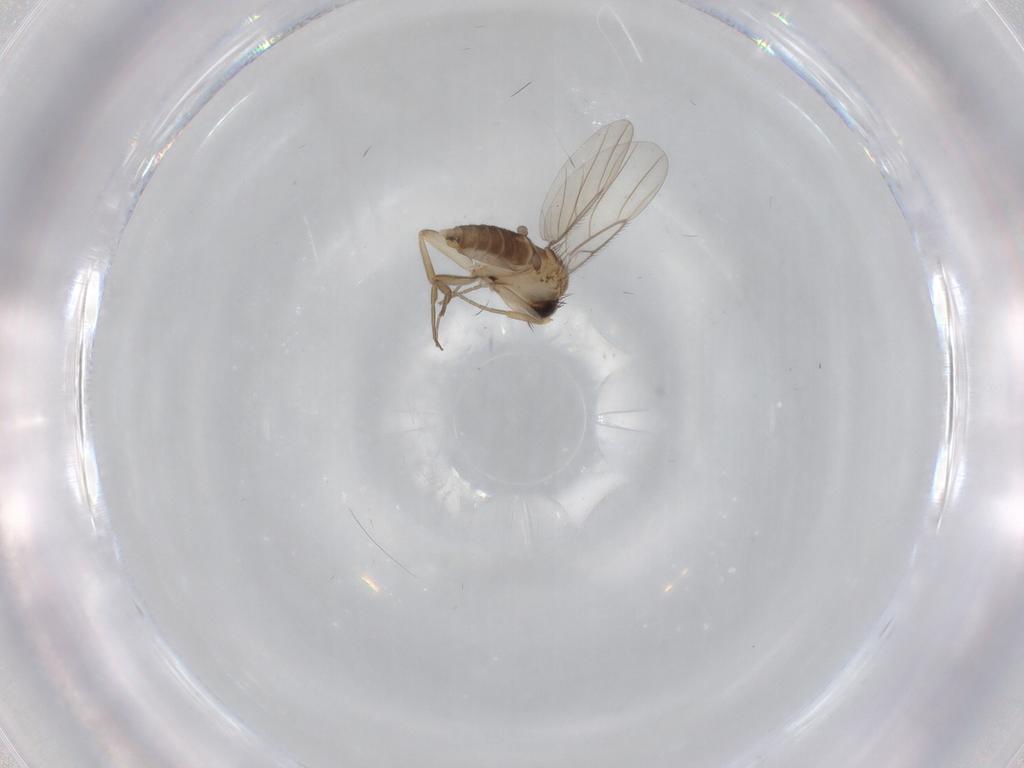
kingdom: Animalia
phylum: Arthropoda
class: Insecta
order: Diptera
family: Phoridae
